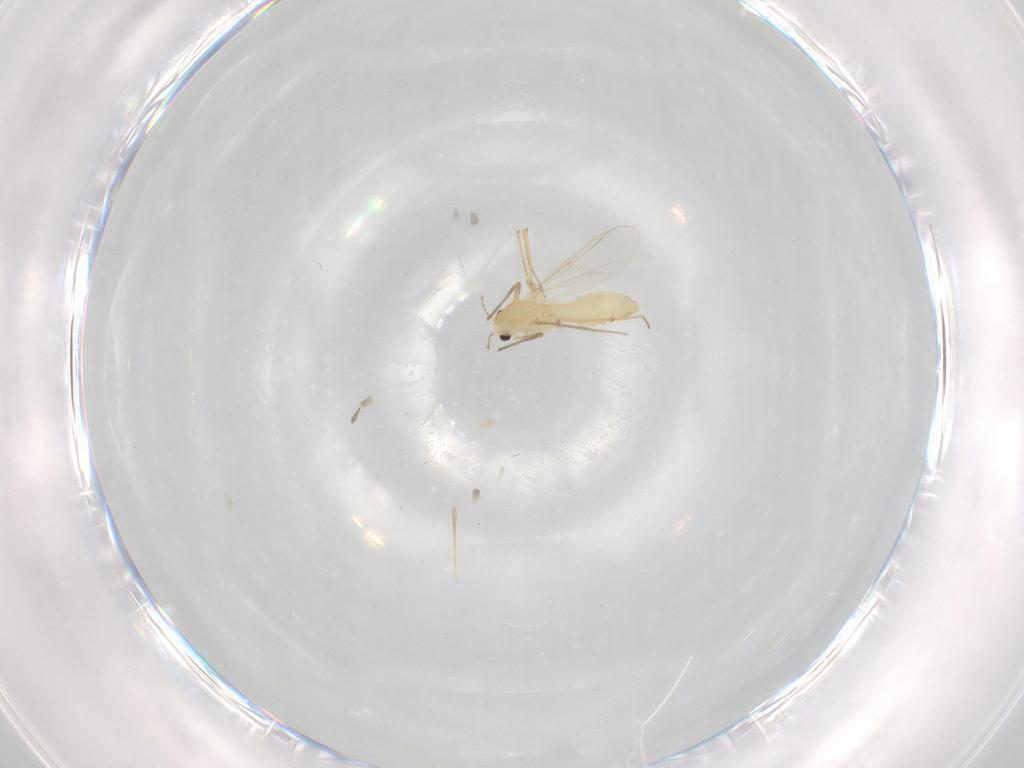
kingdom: Animalia
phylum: Arthropoda
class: Insecta
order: Diptera
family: Chironomidae
